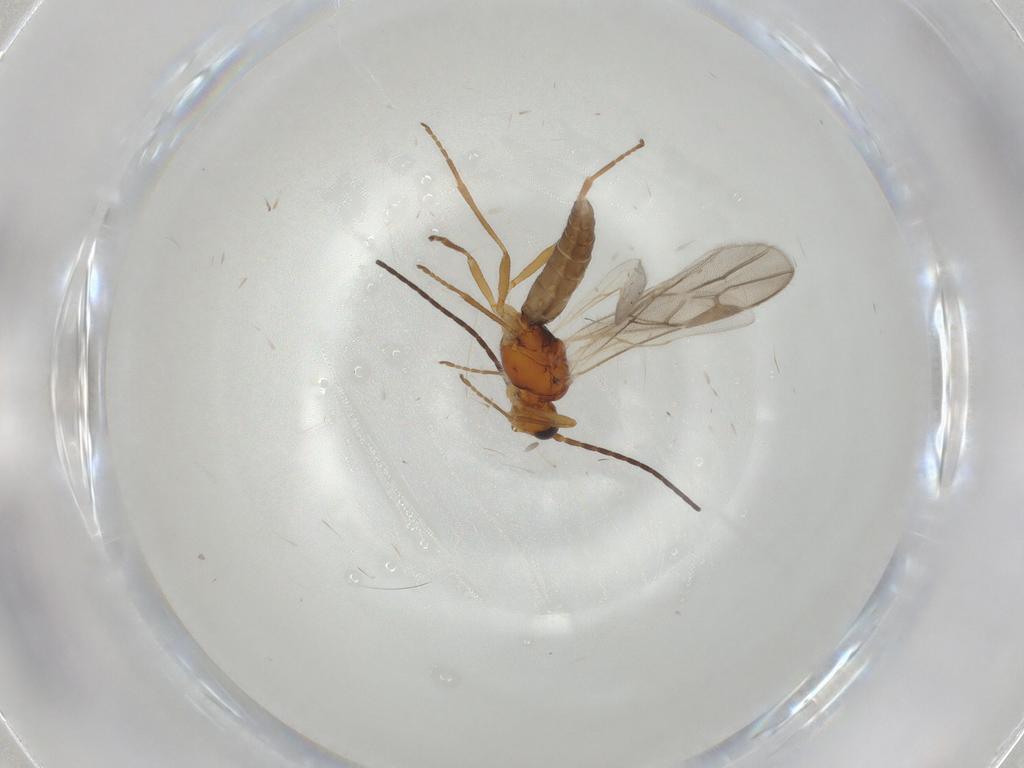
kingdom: Animalia
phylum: Arthropoda
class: Insecta
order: Hymenoptera
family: Braconidae
